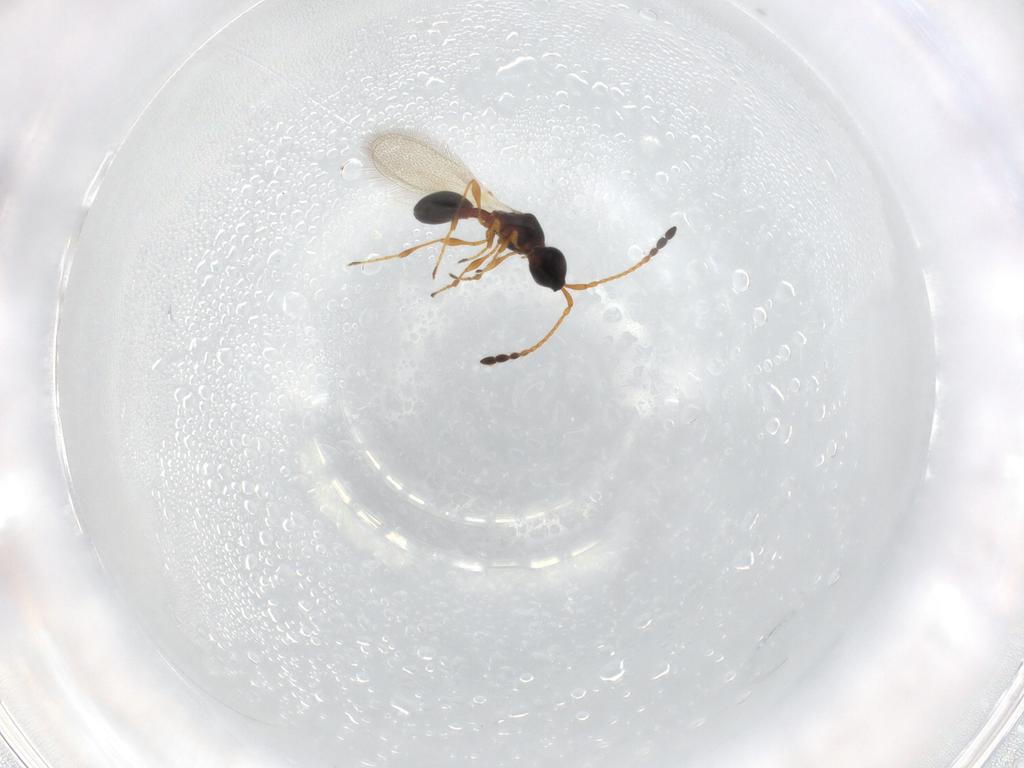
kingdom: Animalia
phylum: Arthropoda
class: Insecta
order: Hymenoptera
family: Diapriidae
